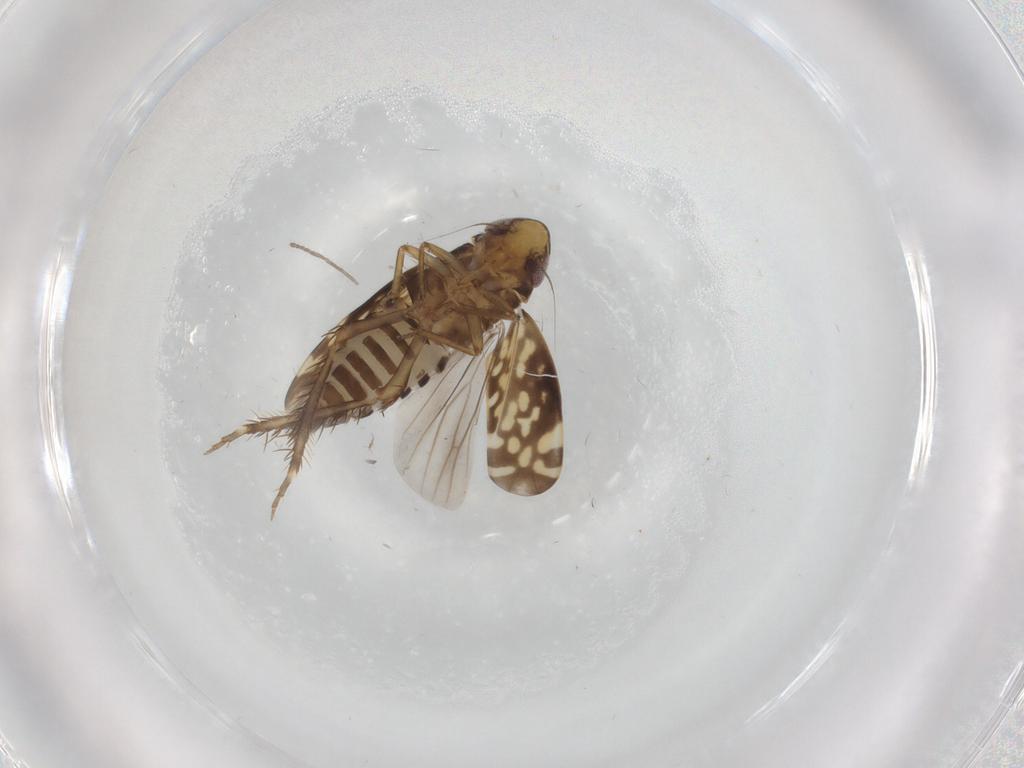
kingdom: Animalia
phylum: Arthropoda
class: Insecta
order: Hemiptera
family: Cicadellidae
